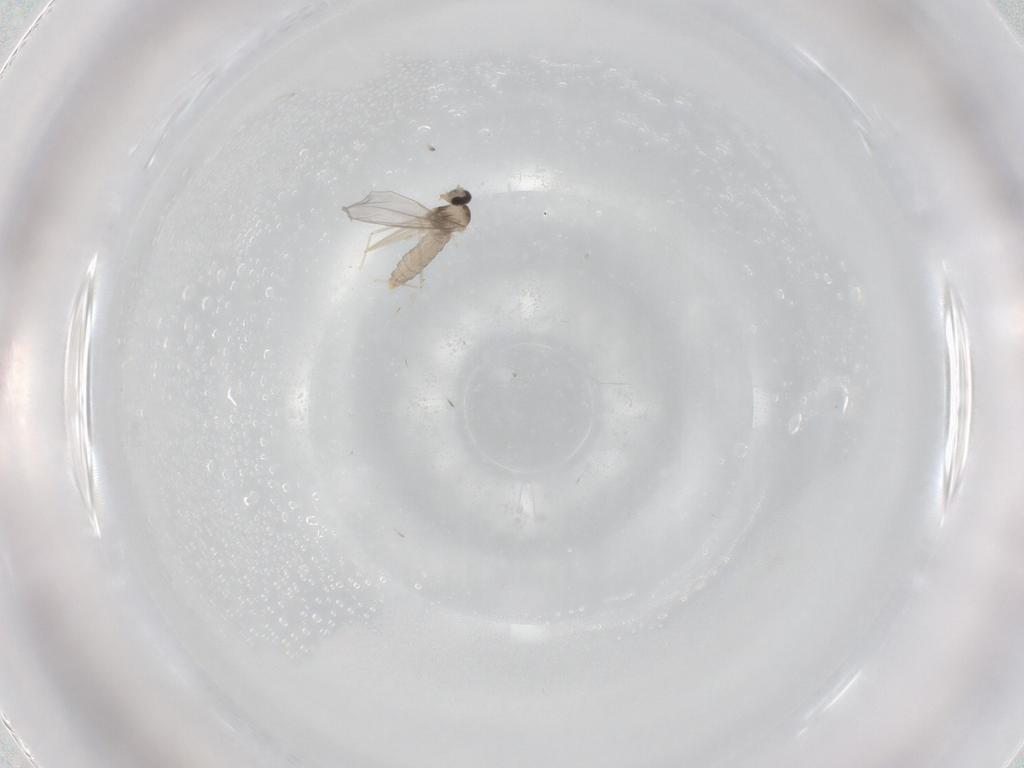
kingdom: Animalia
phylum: Arthropoda
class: Insecta
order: Diptera
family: Cecidomyiidae
